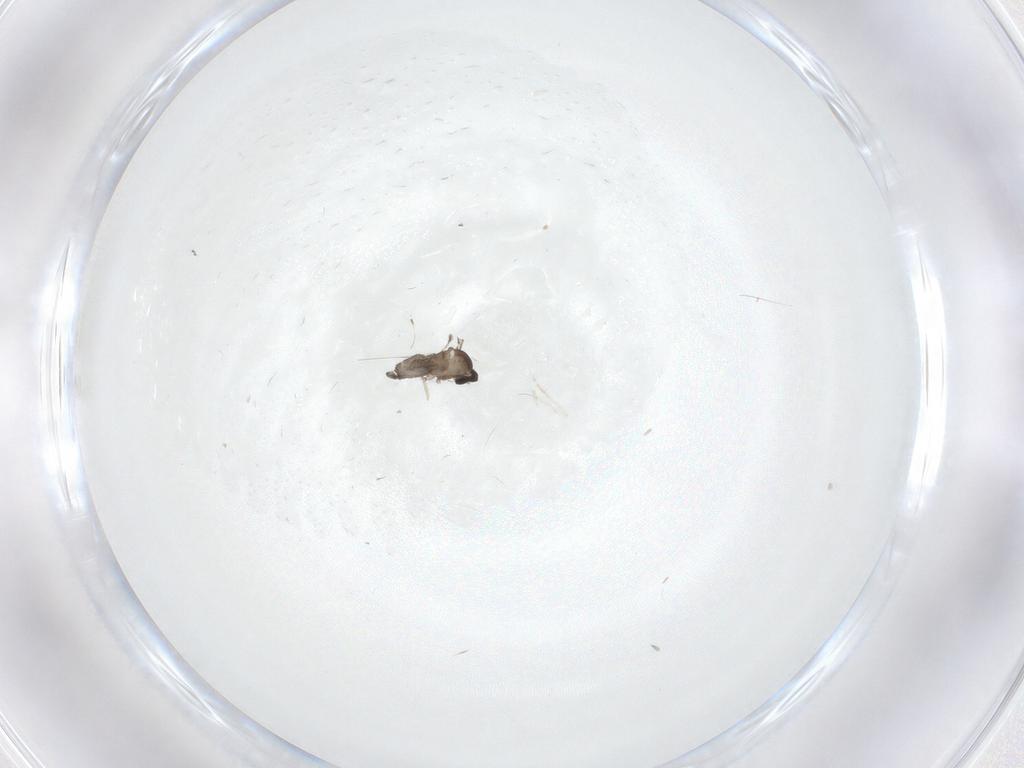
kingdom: Animalia
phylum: Arthropoda
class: Insecta
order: Diptera
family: Cecidomyiidae
